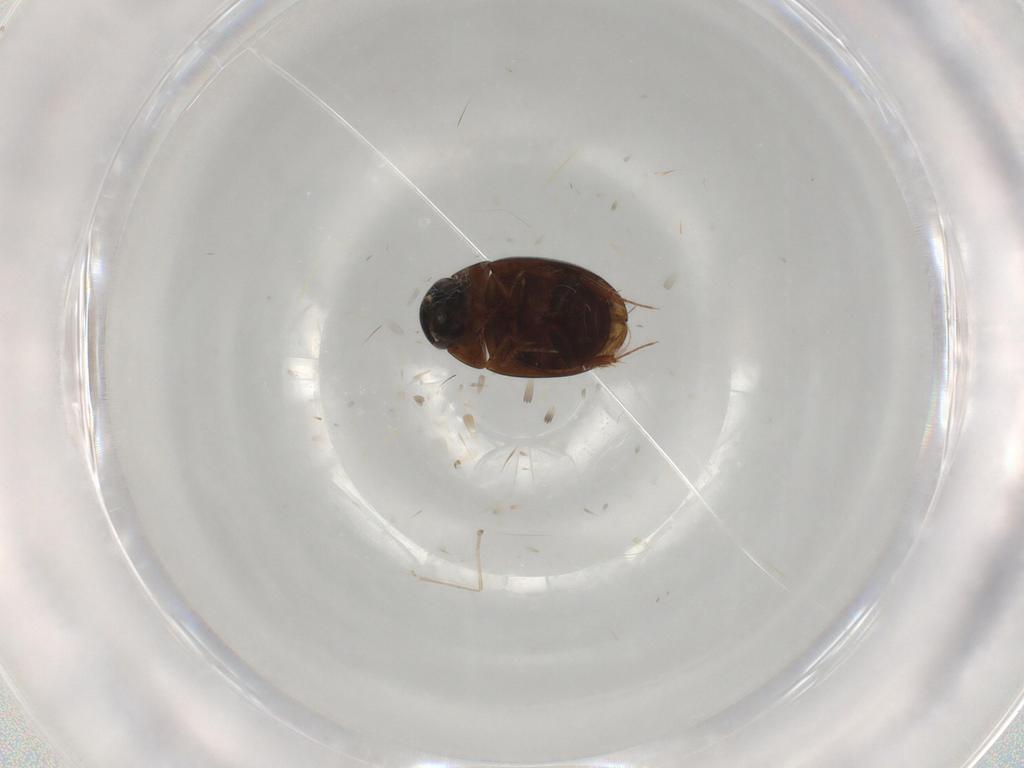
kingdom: Animalia
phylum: Arthropoda
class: Insecta
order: Coleoptera
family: Hydrophilidae
